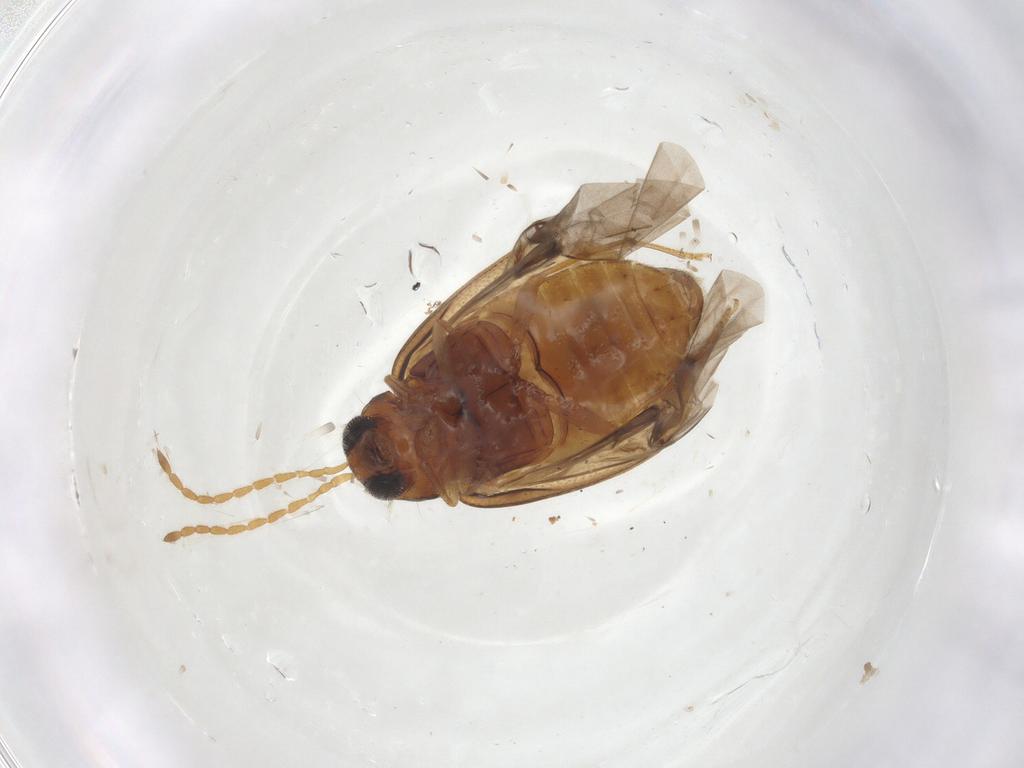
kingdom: Animalia
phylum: Arthropoda
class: Insecta
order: Coleoptera
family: Chrysomelidae
